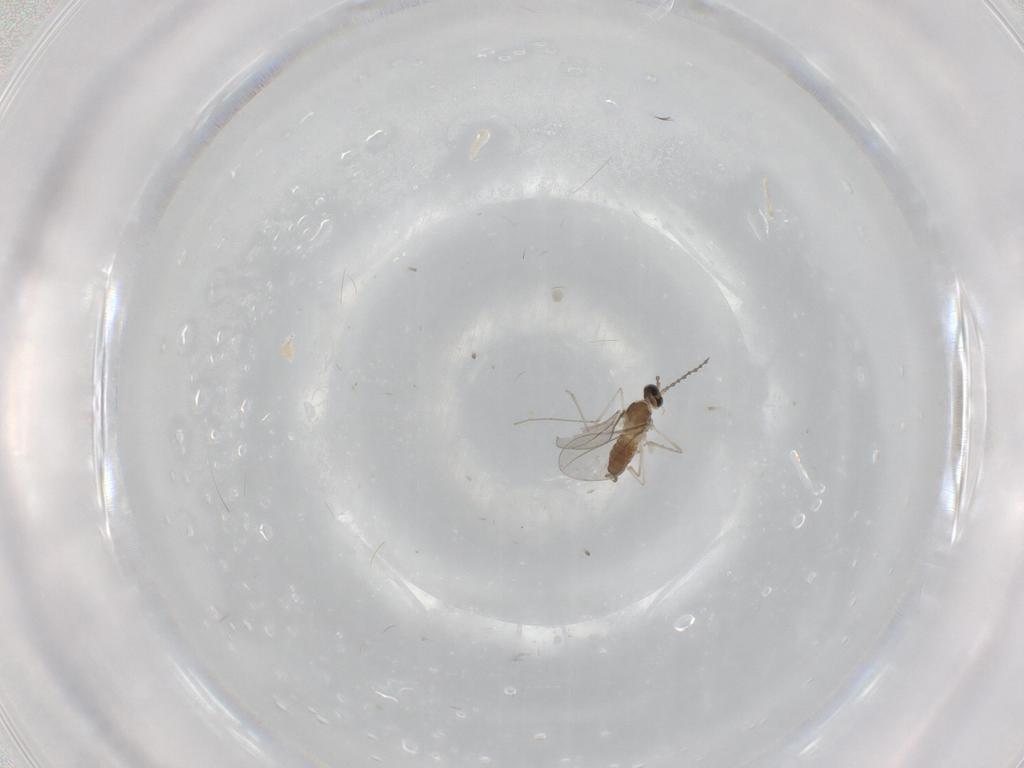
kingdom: Animalia
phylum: Arthropoda
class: Insecta
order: Diptera
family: Cecidomyiidae
